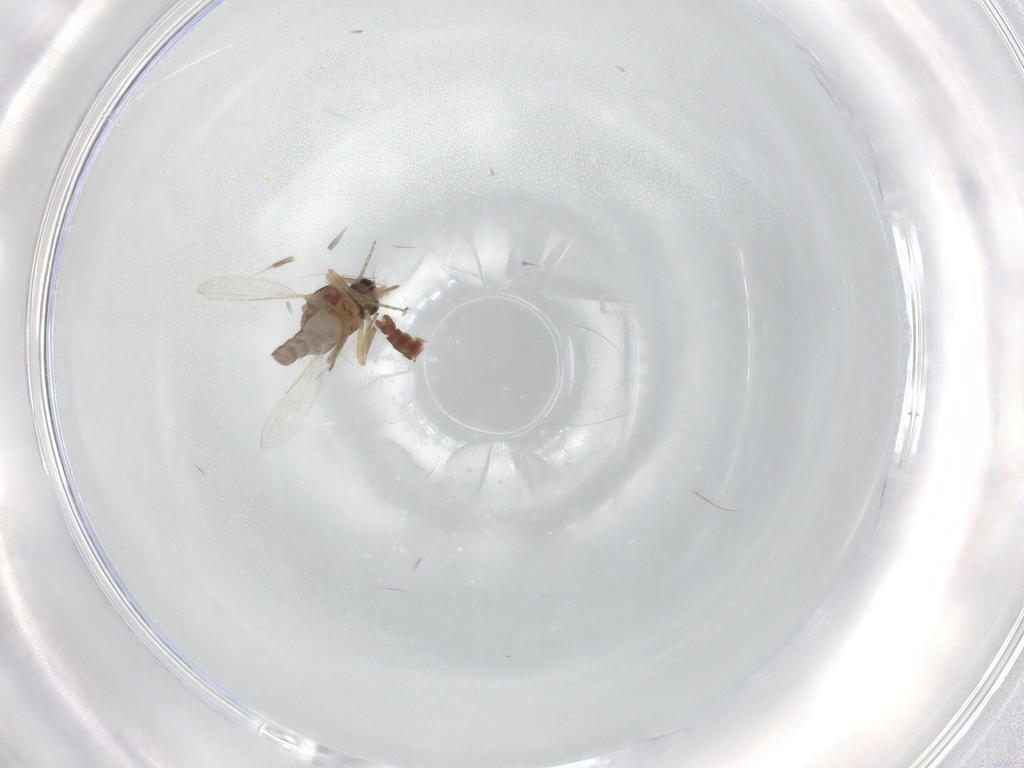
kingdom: Animalia
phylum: Arthropoda
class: Insecta
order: Diptera
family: Ceratopogonidae
